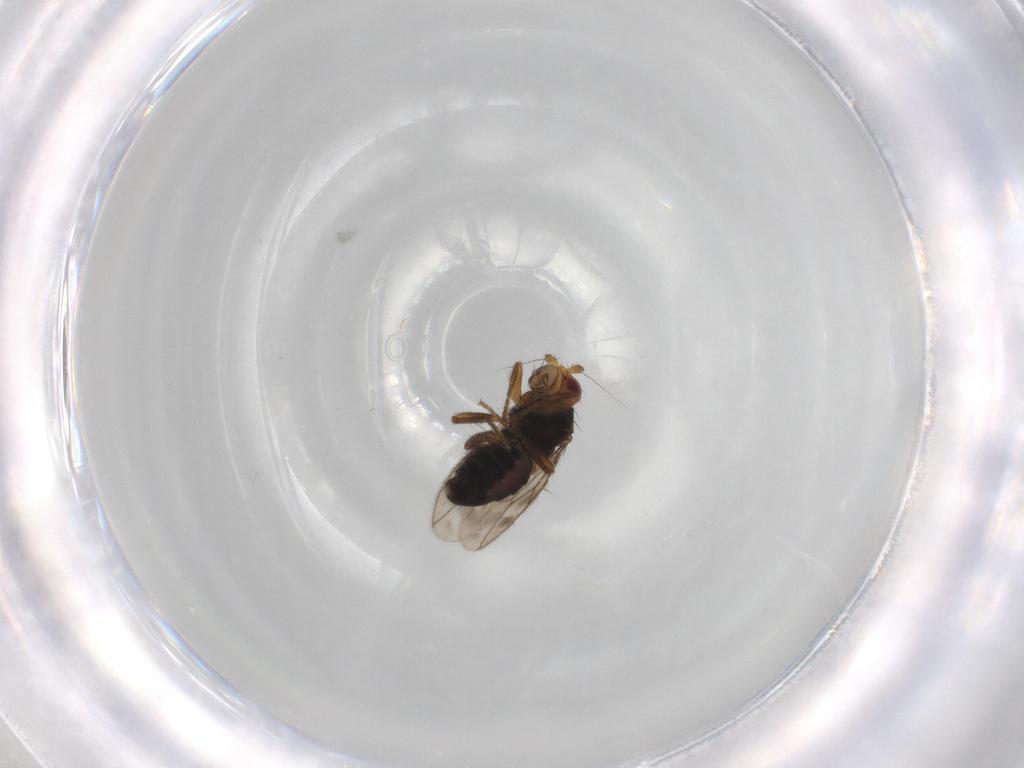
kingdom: Animalia
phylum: Arthropoda
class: Insecta
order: Diptera
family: Sphaeroceridae
